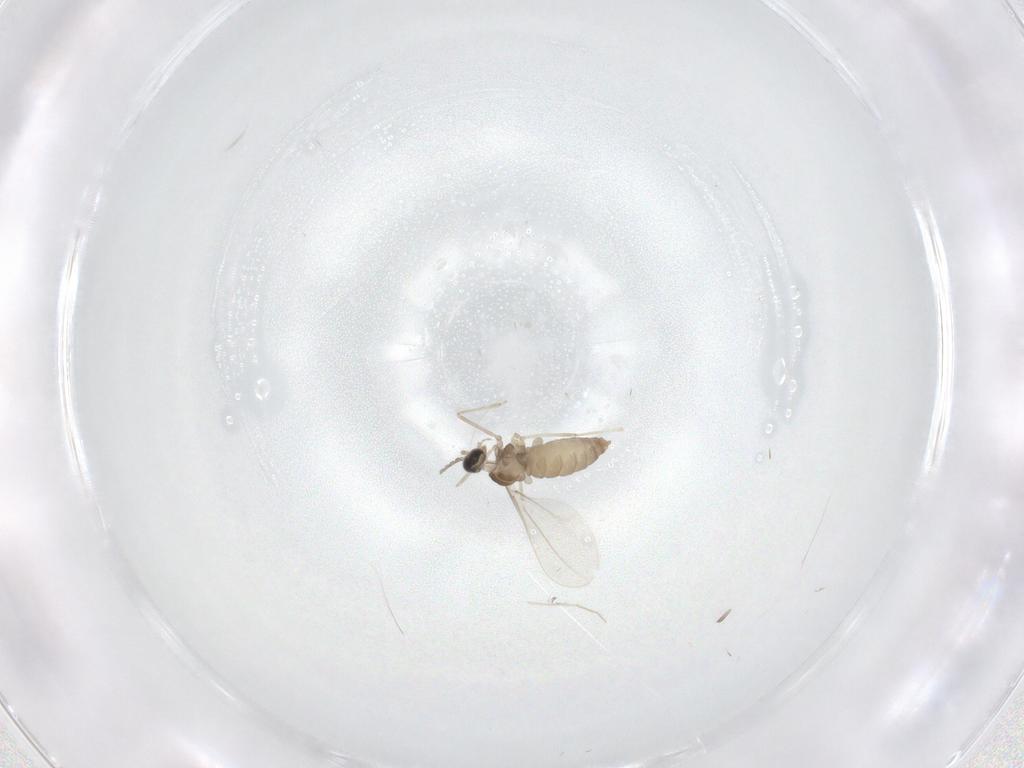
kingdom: Animalia
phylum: Arthropoda
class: Insecta
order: Diptera
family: Cecidomyiidae
